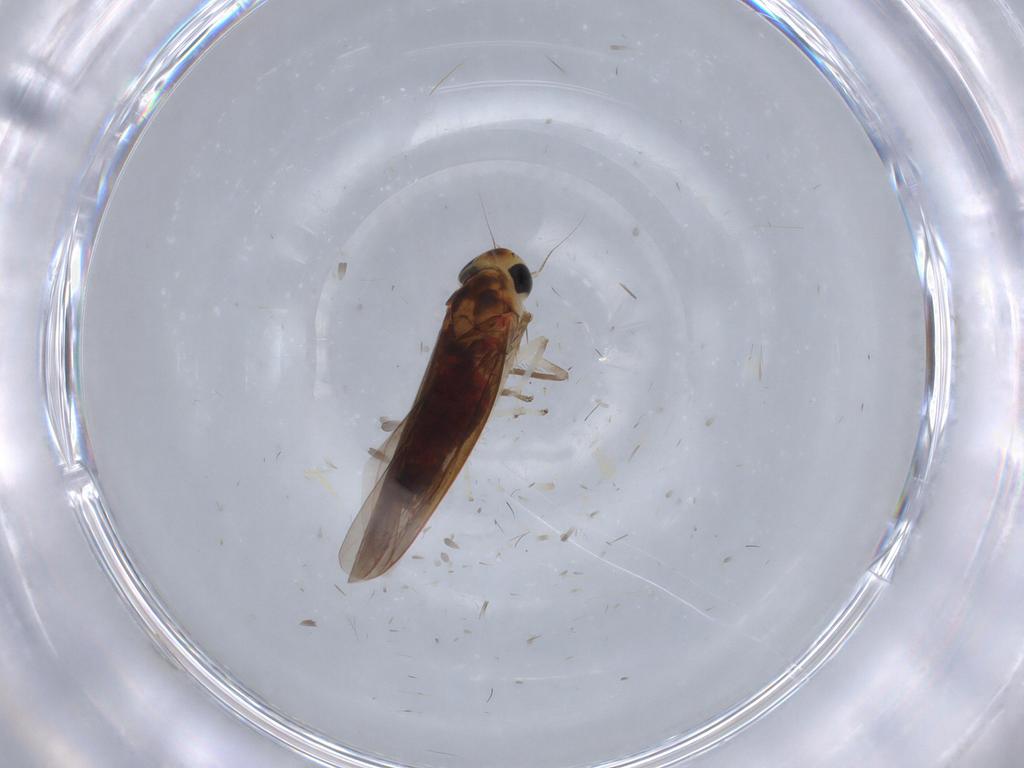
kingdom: Animalia
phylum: Arthropoda
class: Insecta
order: Hemiptera
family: Cicadellidae
